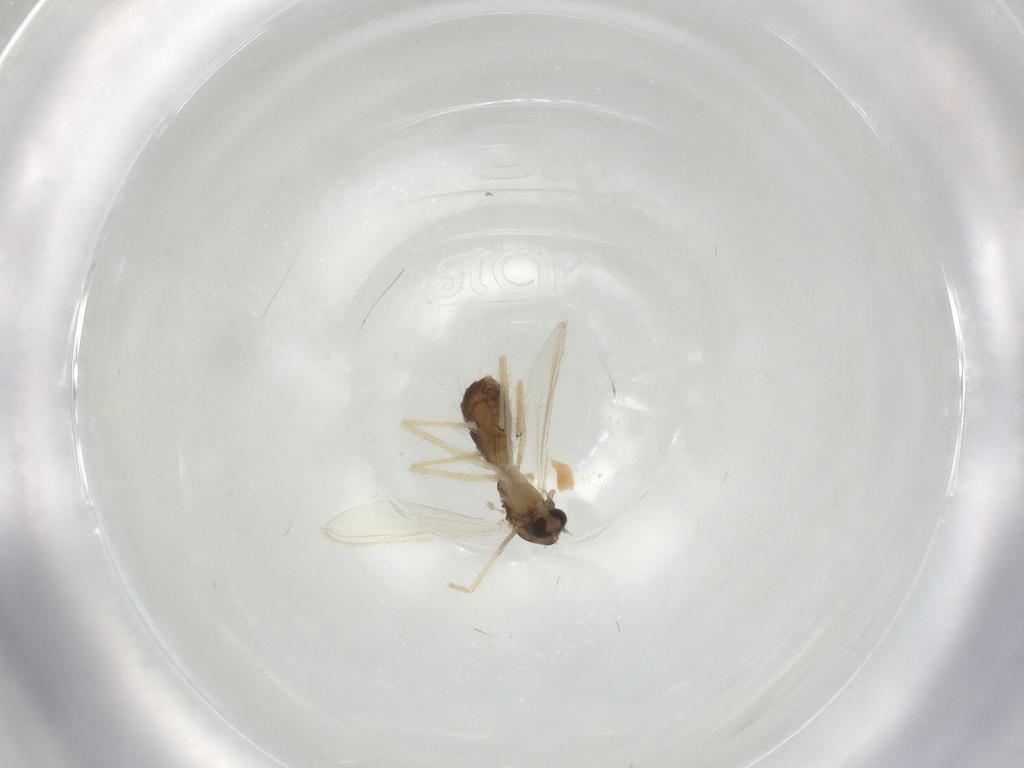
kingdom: Animalia
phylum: Arthropoda
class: Insecta
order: Diptera
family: Chironomidae
